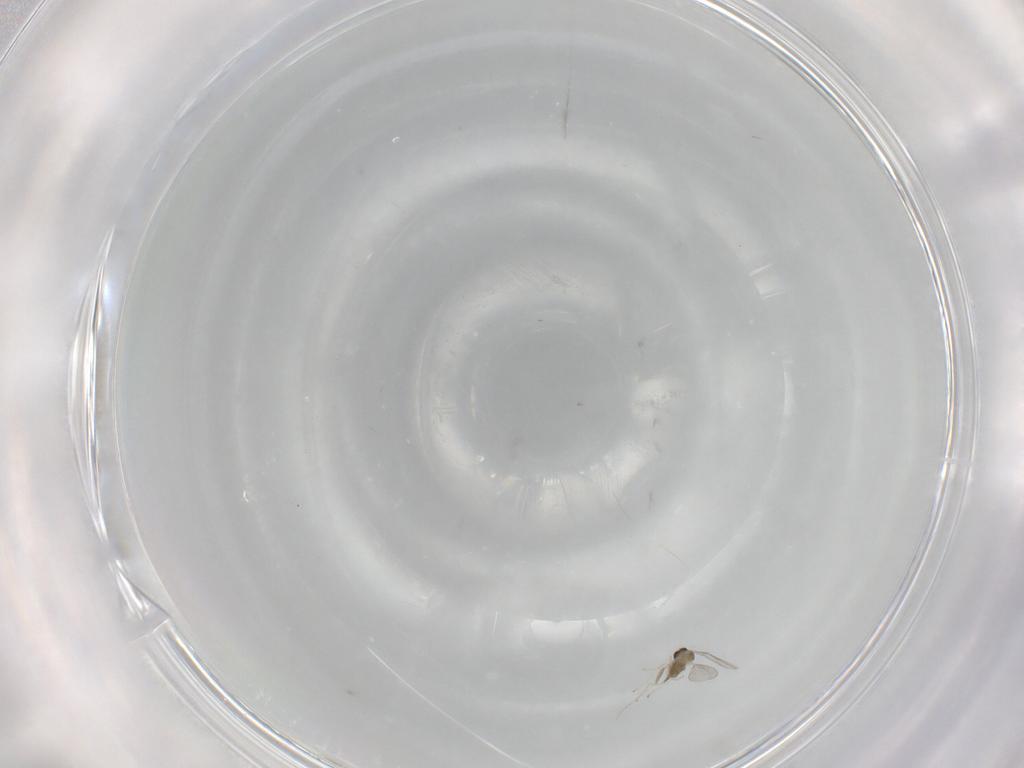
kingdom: Animalia
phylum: Arthropoda
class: Insecta
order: Diptera
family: Cecidomyiidae
